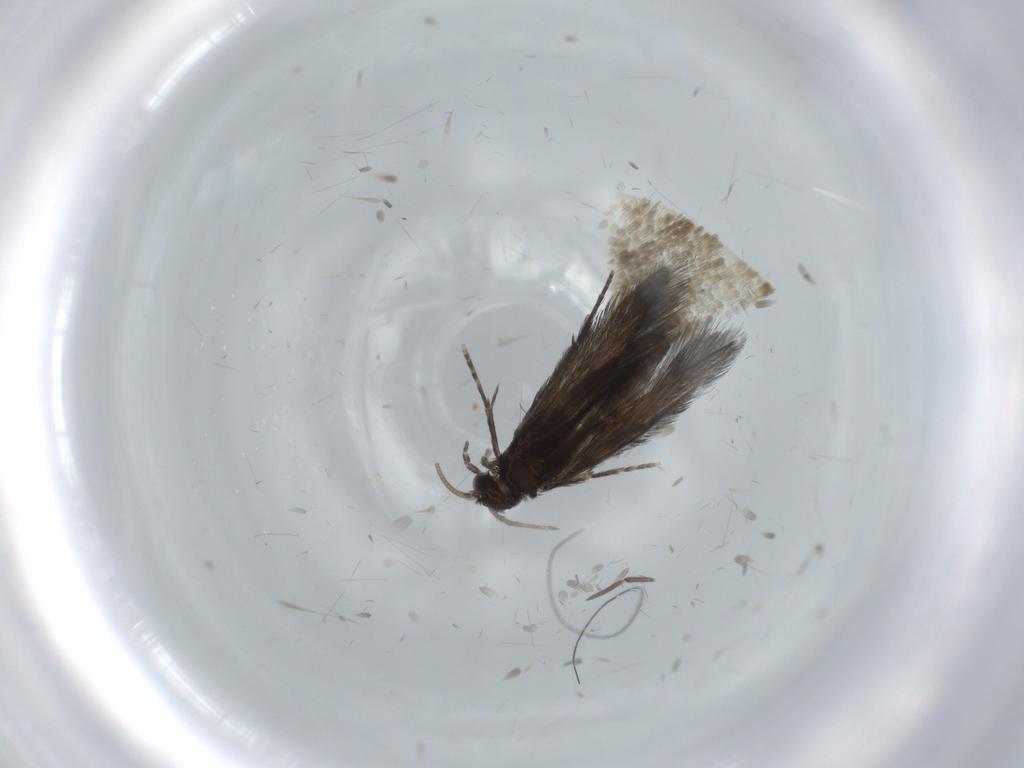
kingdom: Animalia
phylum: Arthropoda
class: Insecta
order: Trichoptera
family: Hydroptilidae
